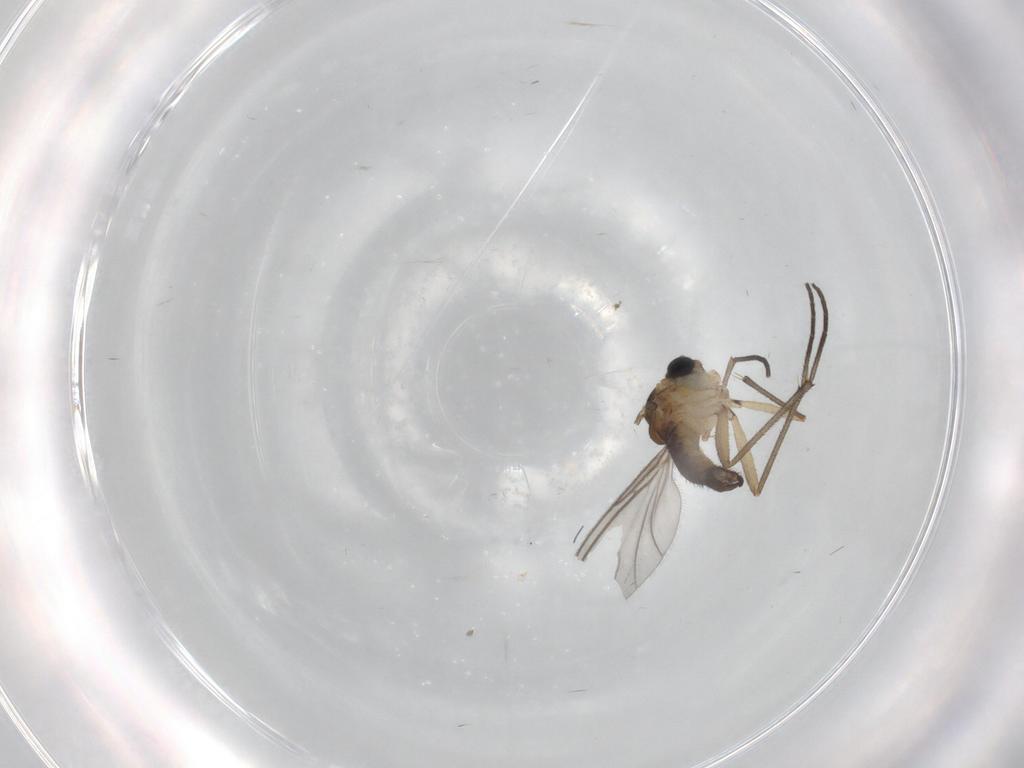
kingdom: Animalia
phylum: Arthropoda
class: Insecta
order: Diptera
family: Sciaridae
